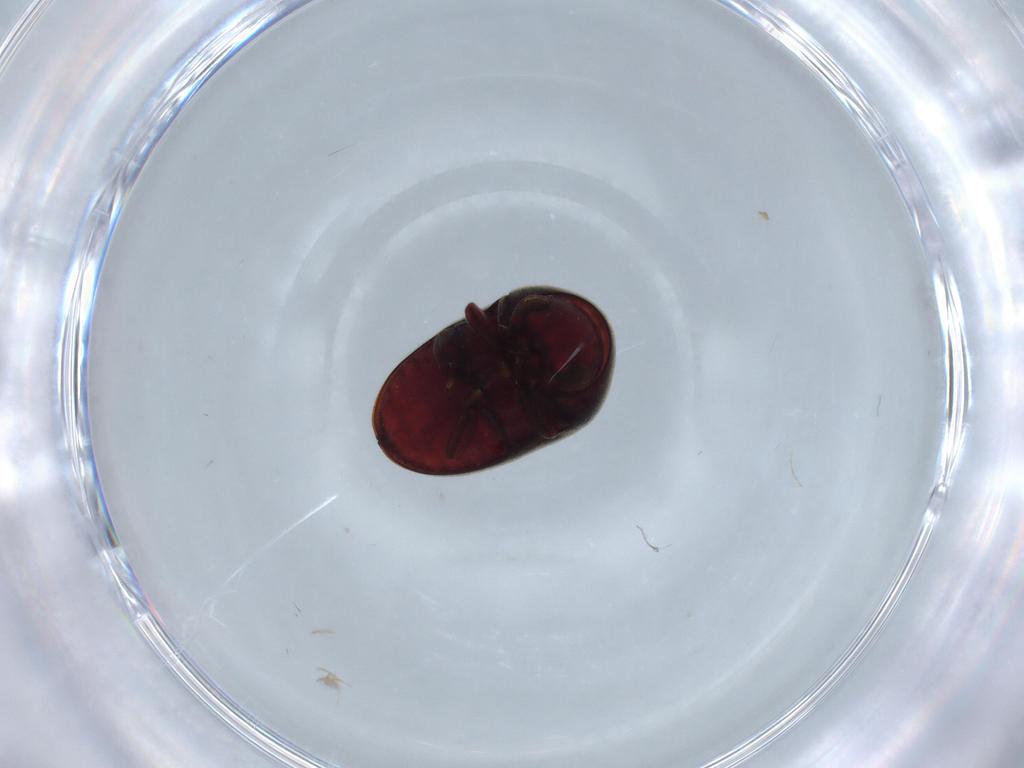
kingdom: Animalia
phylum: Arthropoda
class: Insecta
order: Coleoptera
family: Ptinidae
